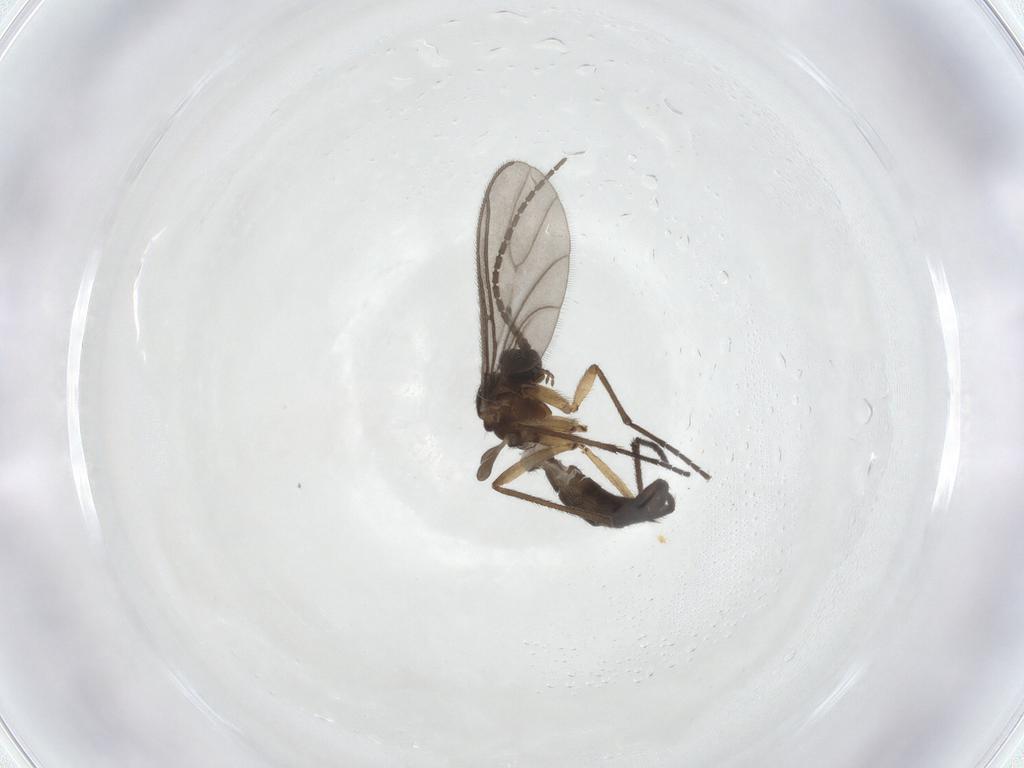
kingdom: Animalia
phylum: Arthropoda
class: Insecta
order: Diptera
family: Sciaridae
